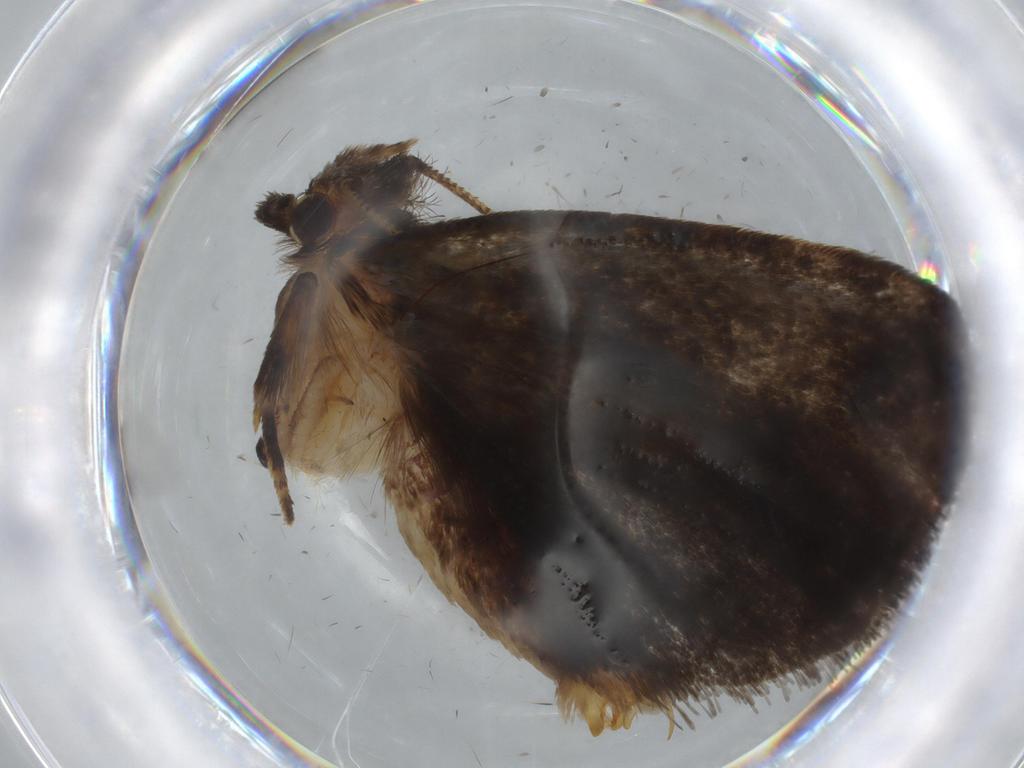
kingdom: Animalia
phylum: Arthropoda
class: Insecta
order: Lepidoptera
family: Tineidae
